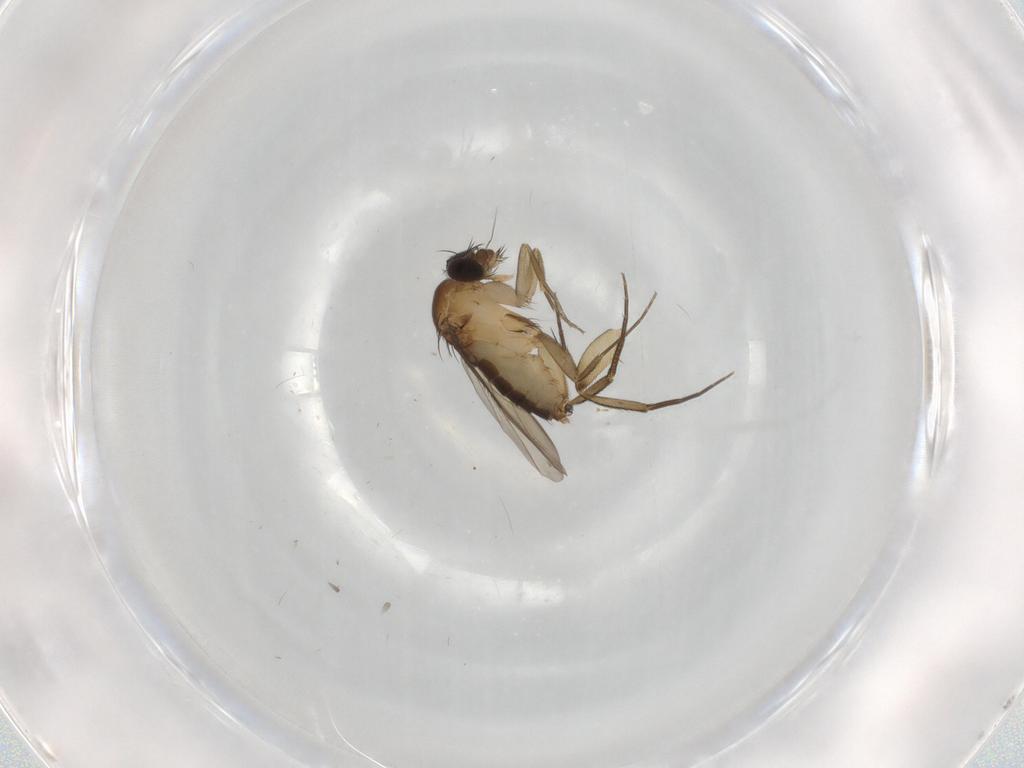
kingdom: Animalia
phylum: Arthropoda
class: Insecta
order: Diptera
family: Phoridae
